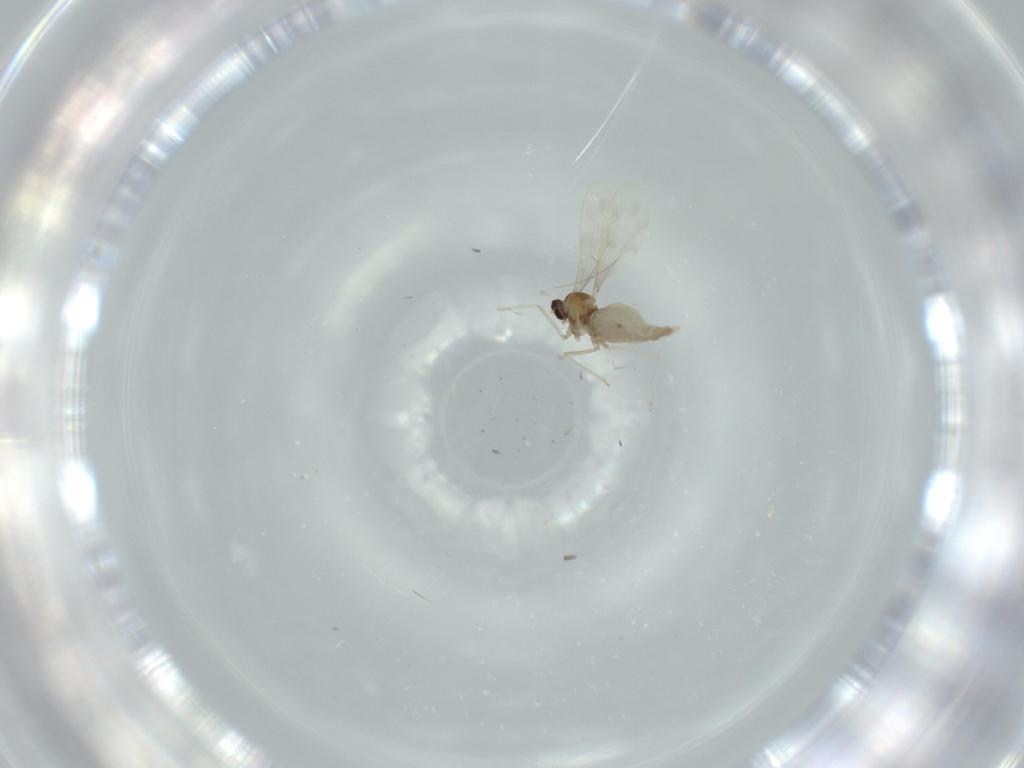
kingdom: Animalia
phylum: Arthropoda
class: Insecta
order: Diptera
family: Cecidomyiidae
